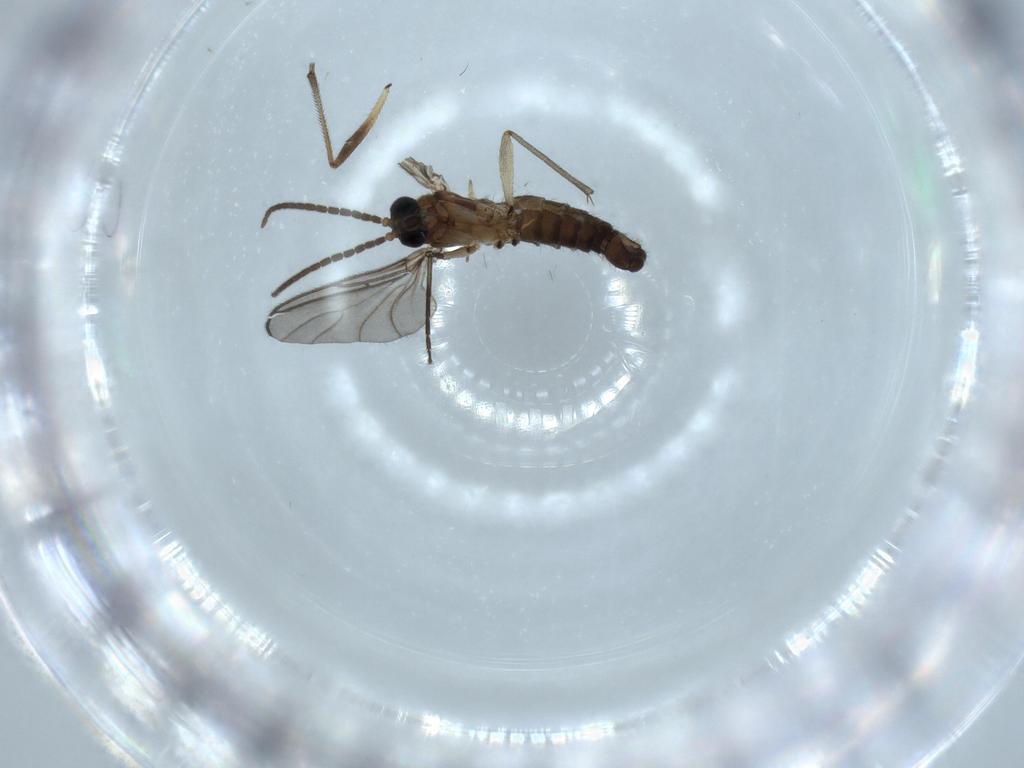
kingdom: Animalia
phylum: Arthropoda
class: Insecta
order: Diptera
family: Sciaridae
